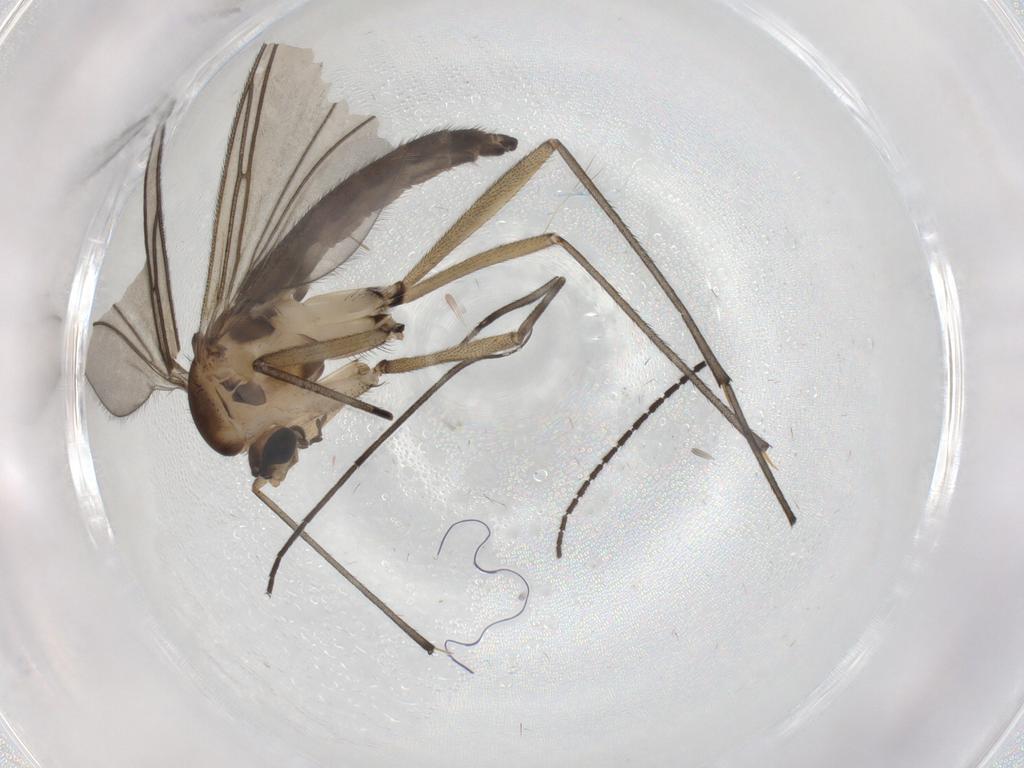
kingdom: Animalia
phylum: Arthropoda
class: Insecta
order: Diptera
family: Sciaridae
